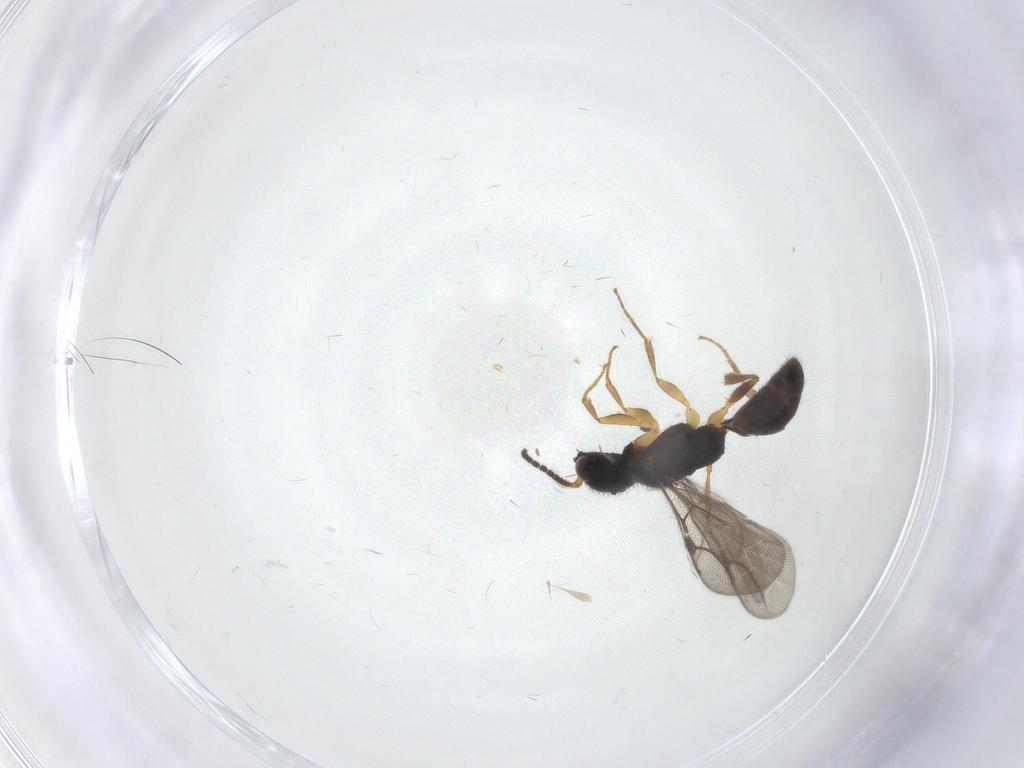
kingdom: Animalia
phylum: Arthropoda
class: Insecta
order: Hymenoptera
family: Bethylidae
